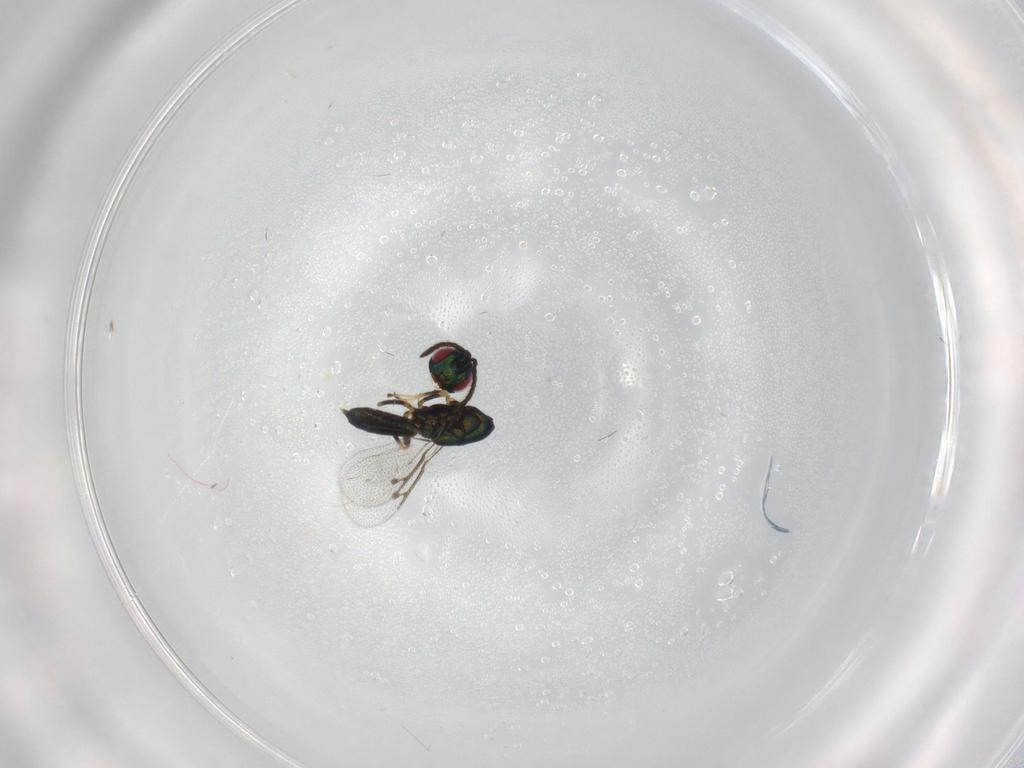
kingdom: Animalia
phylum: Arthropoda
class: Insecta
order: Hymenoptera
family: Pteromalidae
